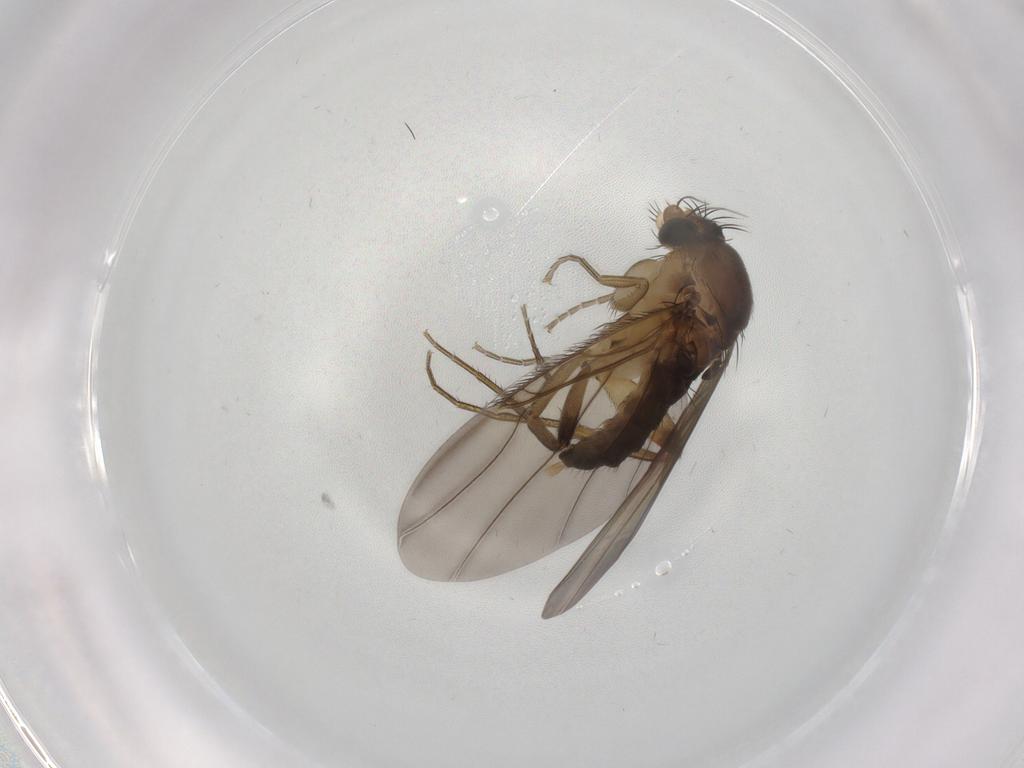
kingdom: Animalia
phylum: Arthropoda
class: Insecta
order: Diptera
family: Phoridae
